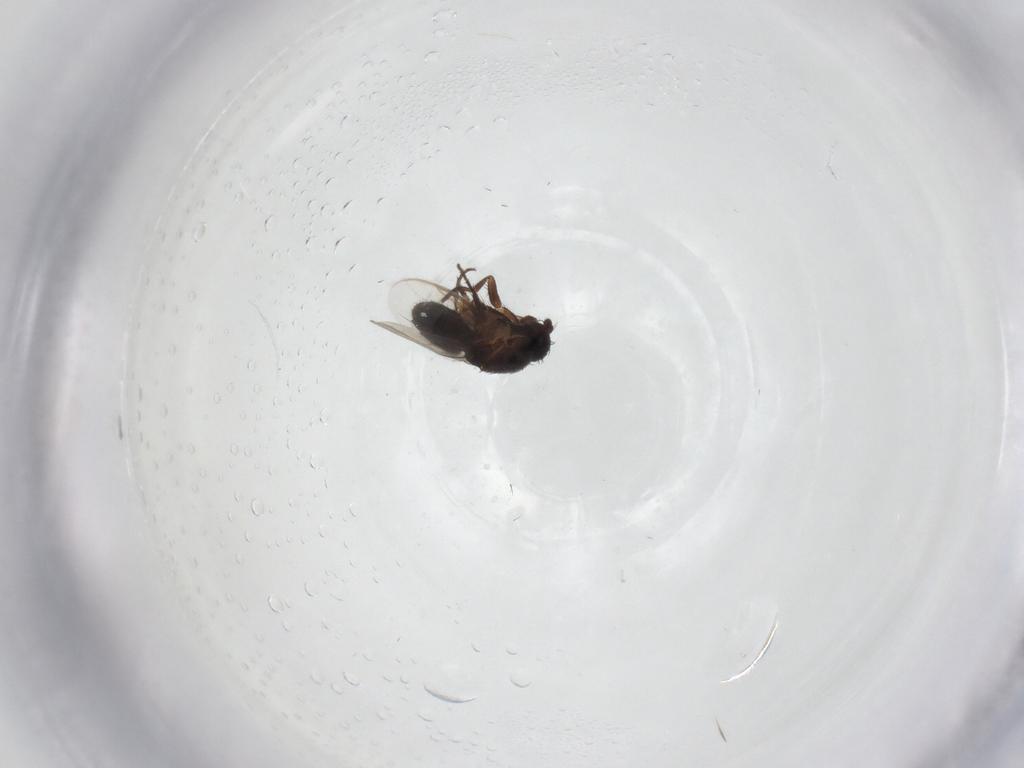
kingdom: Animalia
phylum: Arthropoda
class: Insecta
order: Diptera
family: Sphaeroceridae
